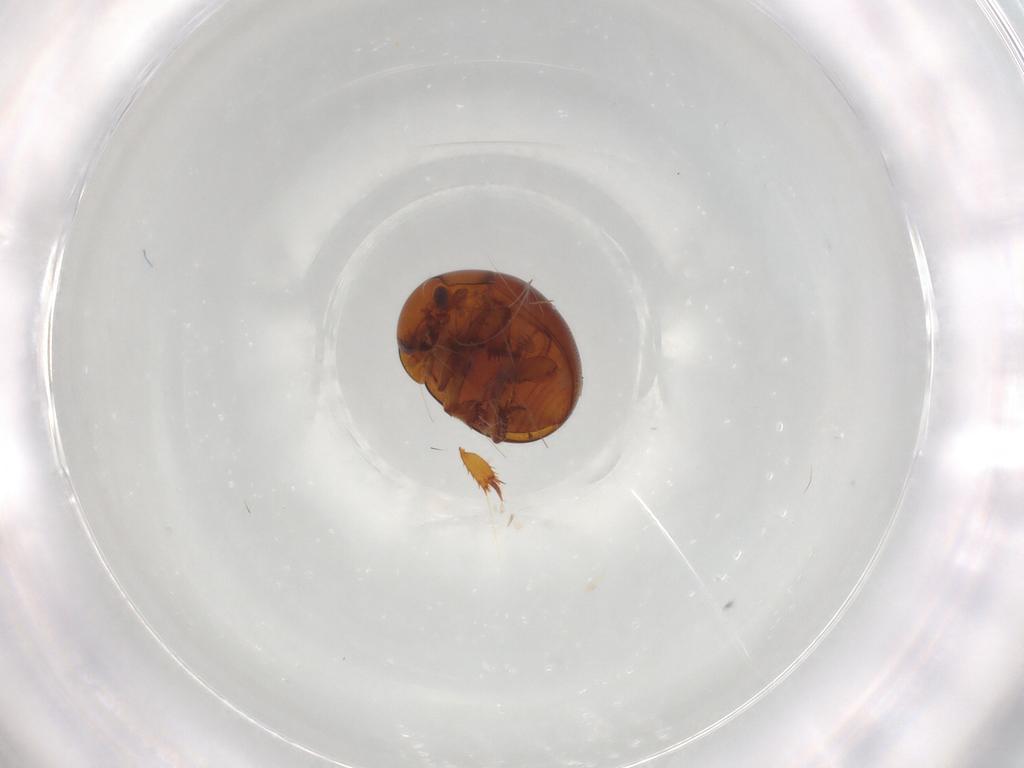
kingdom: Animalia
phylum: Arthropoda
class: Insecta
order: Coleoptera
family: Leiodidae
